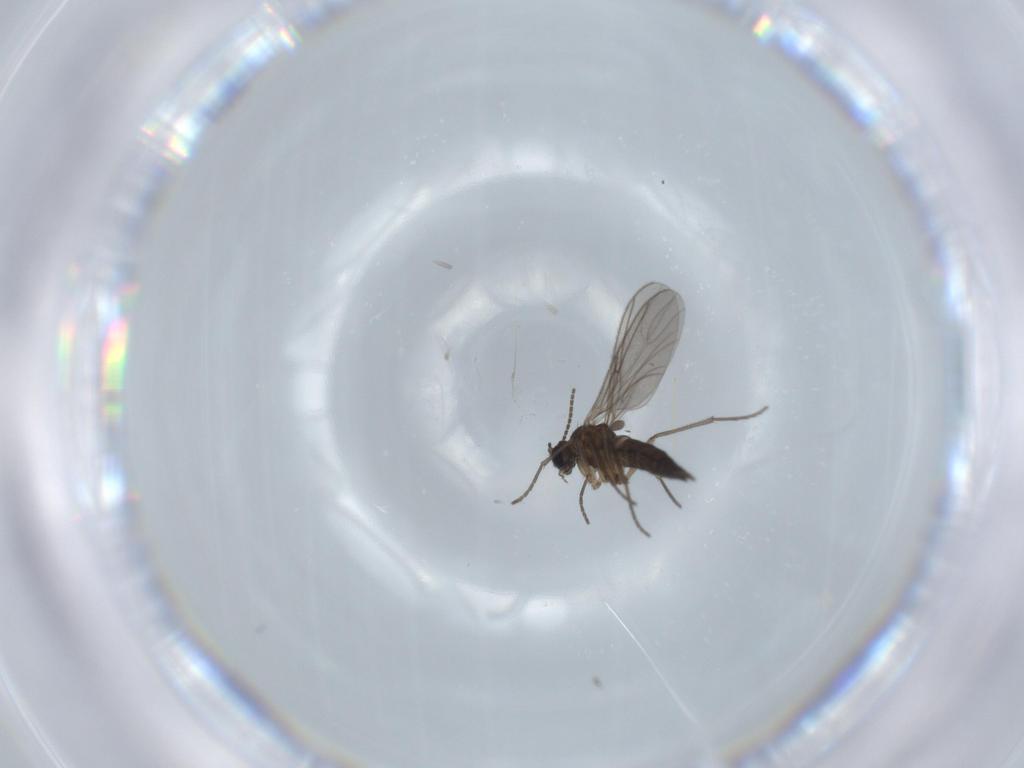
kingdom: Animalia
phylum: Arthropoda
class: Insecta
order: Diptera
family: Sciaridae
